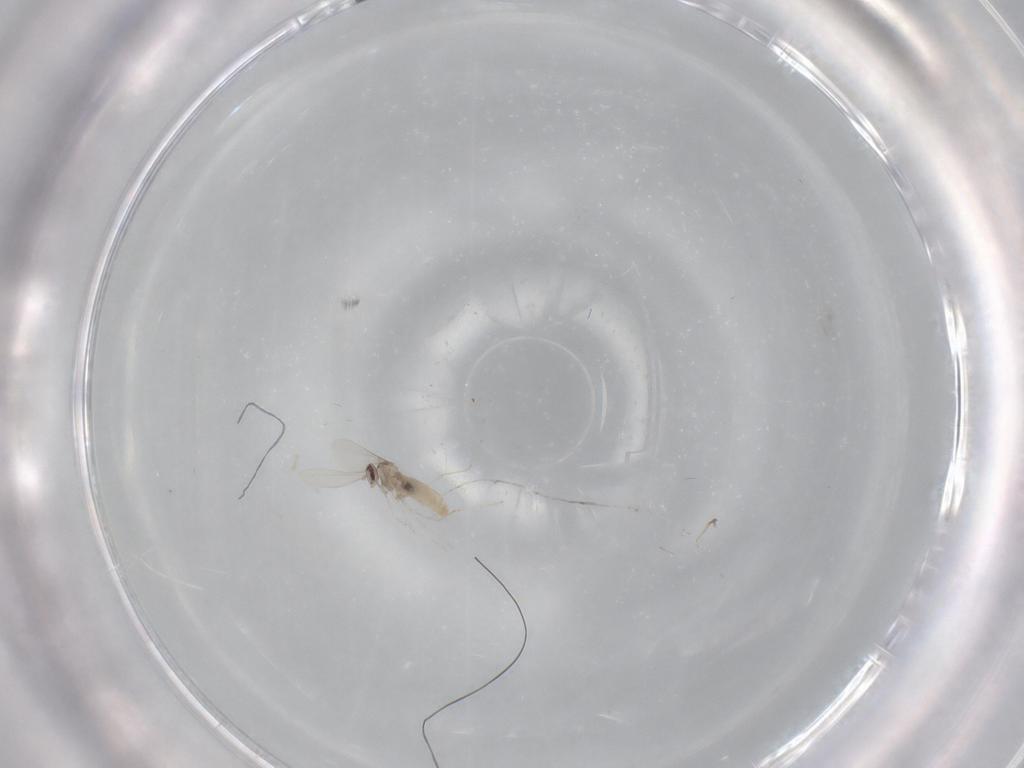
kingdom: Animalia
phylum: Arthropoda
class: Insecta
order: Diptera
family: Cecidomyiidae
